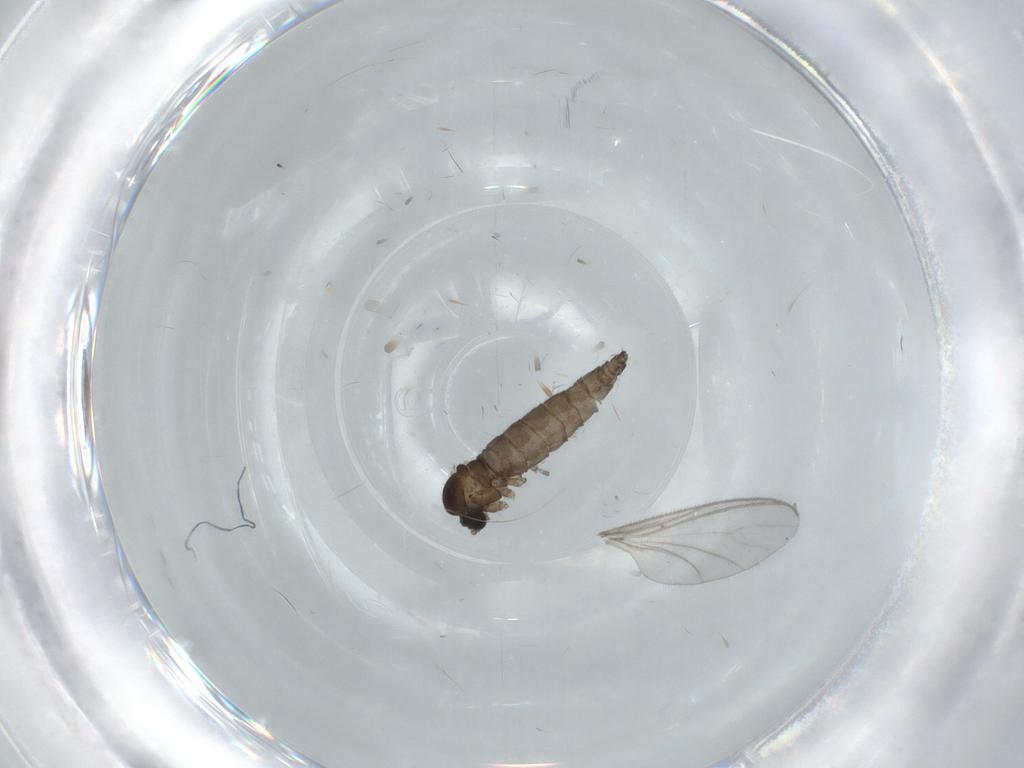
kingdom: Animalia
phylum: Arthropoda
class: Insecta
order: Diptera
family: Sciaridae
